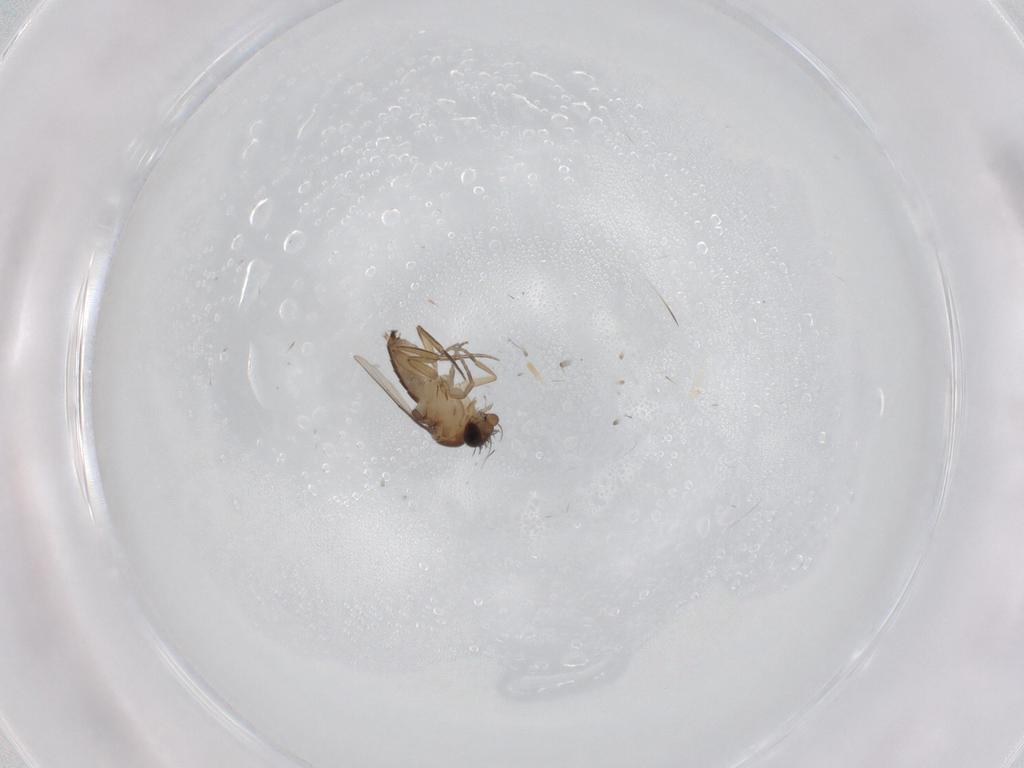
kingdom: Animalia
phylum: Arthropoda
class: Insecta
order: Diptera
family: Phoridae
